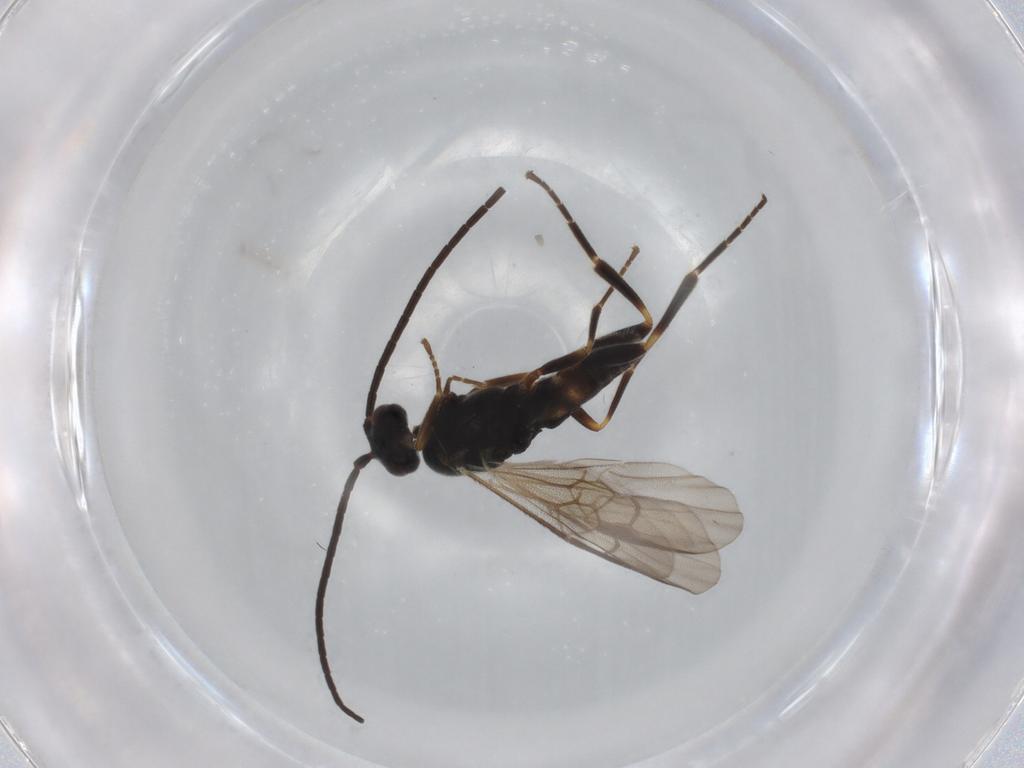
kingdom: Animalia
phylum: Arthropoda
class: Insecta
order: Hymenoptera
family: Braconidae
